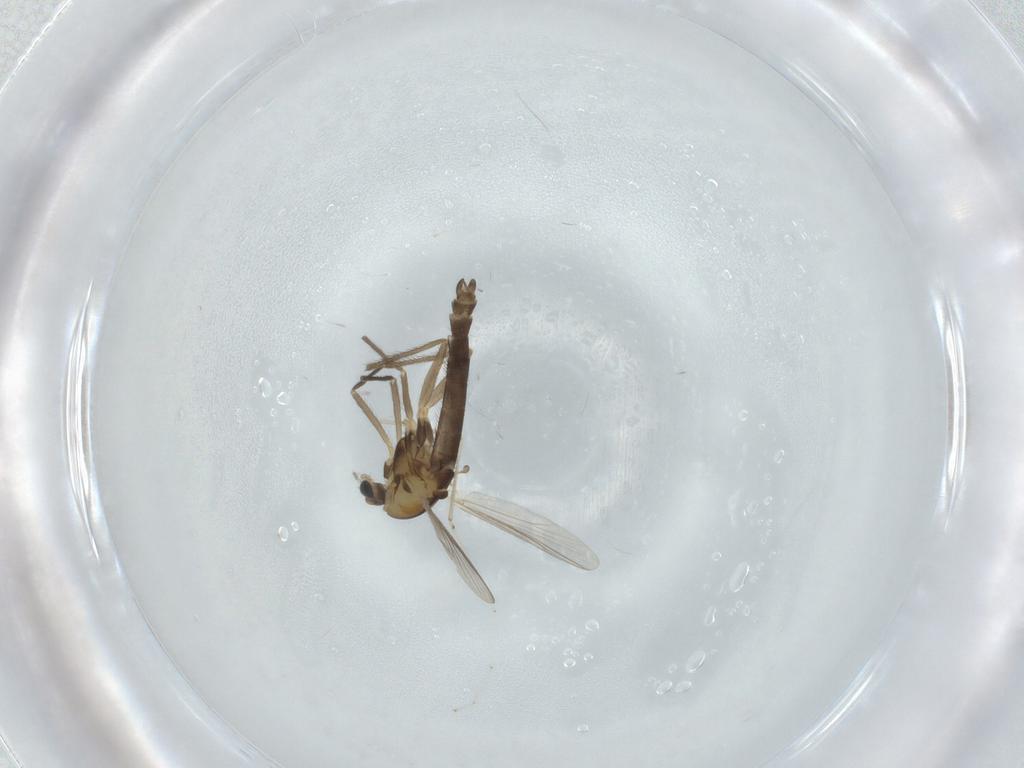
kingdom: Animalia
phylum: Arthropoda
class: Insecta
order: Diptera
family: Chironomidae
